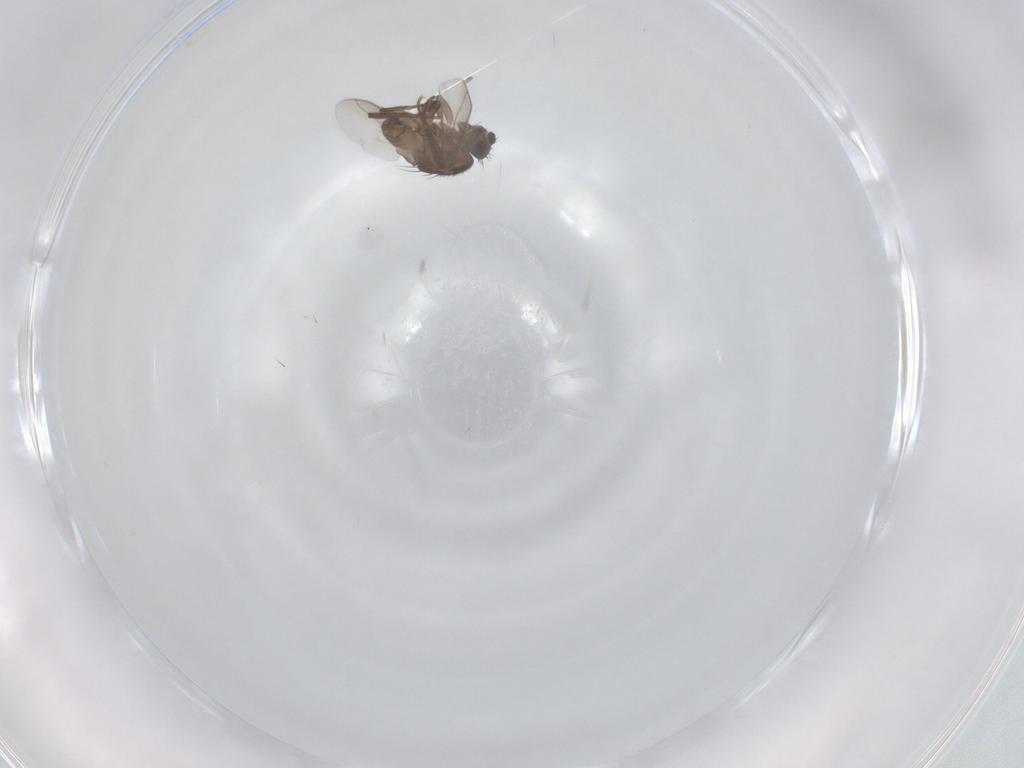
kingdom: Animalia
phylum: Arthropoda
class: Insecta
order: Diptera
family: Sphaeroceridae
